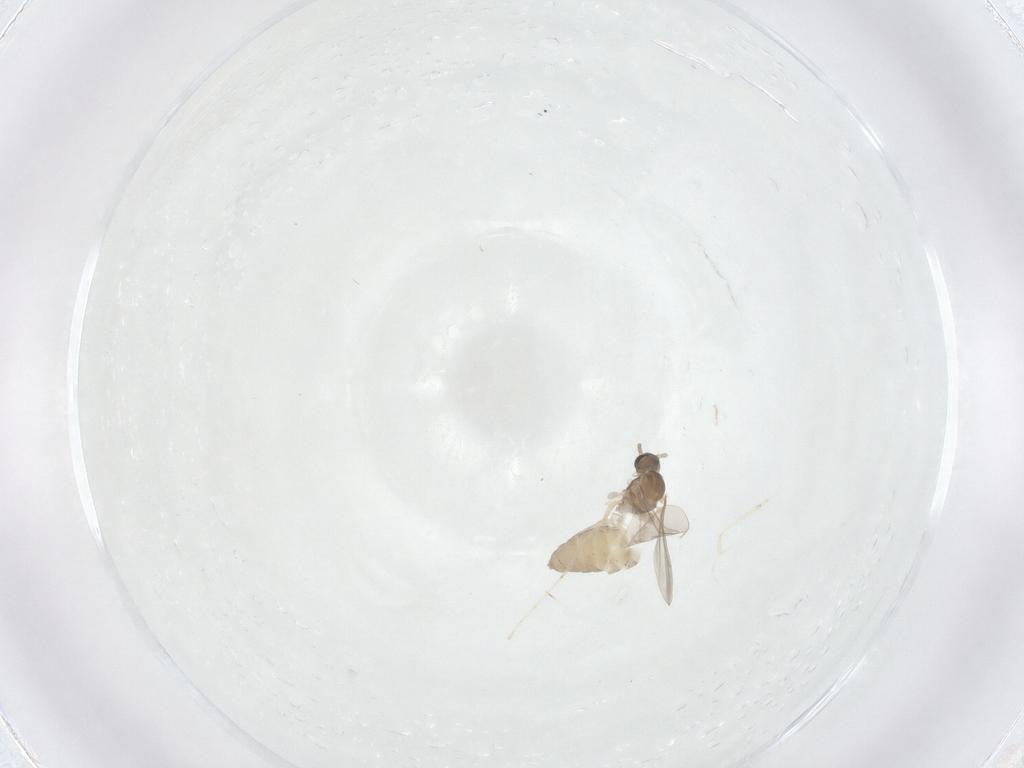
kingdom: Animalia
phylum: Arthropoda
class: Insecta
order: Diptera
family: Cecidomyiidae
